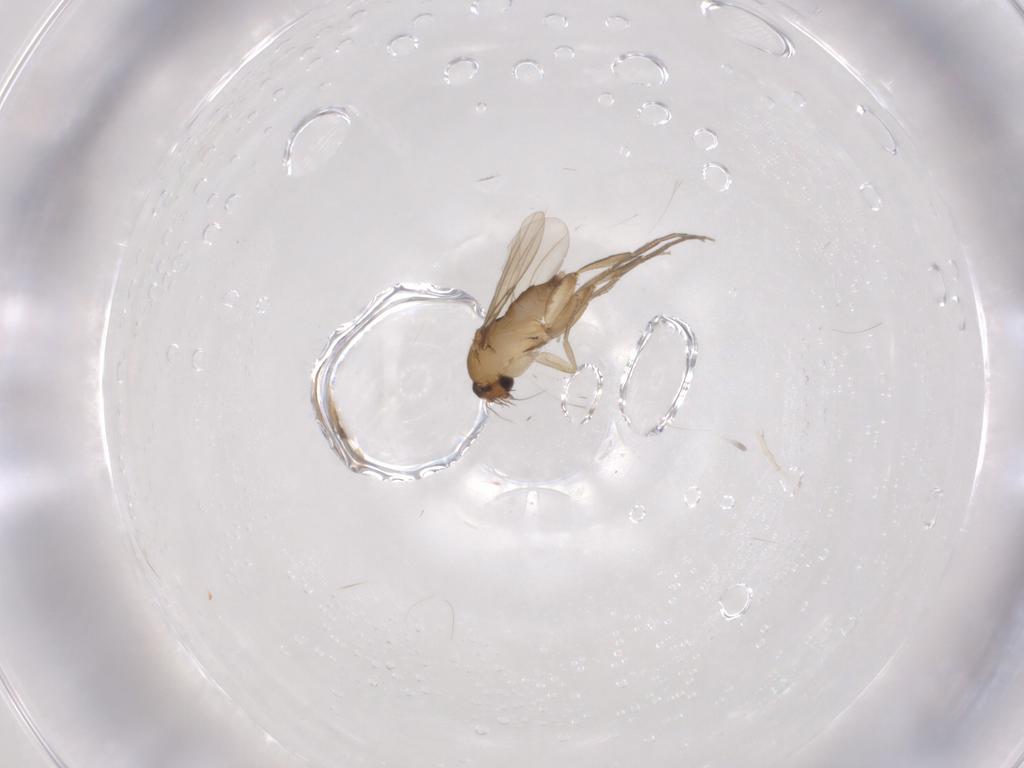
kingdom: Animalia
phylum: Arthropoda
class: Insecta
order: Diptera
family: Phoridae
